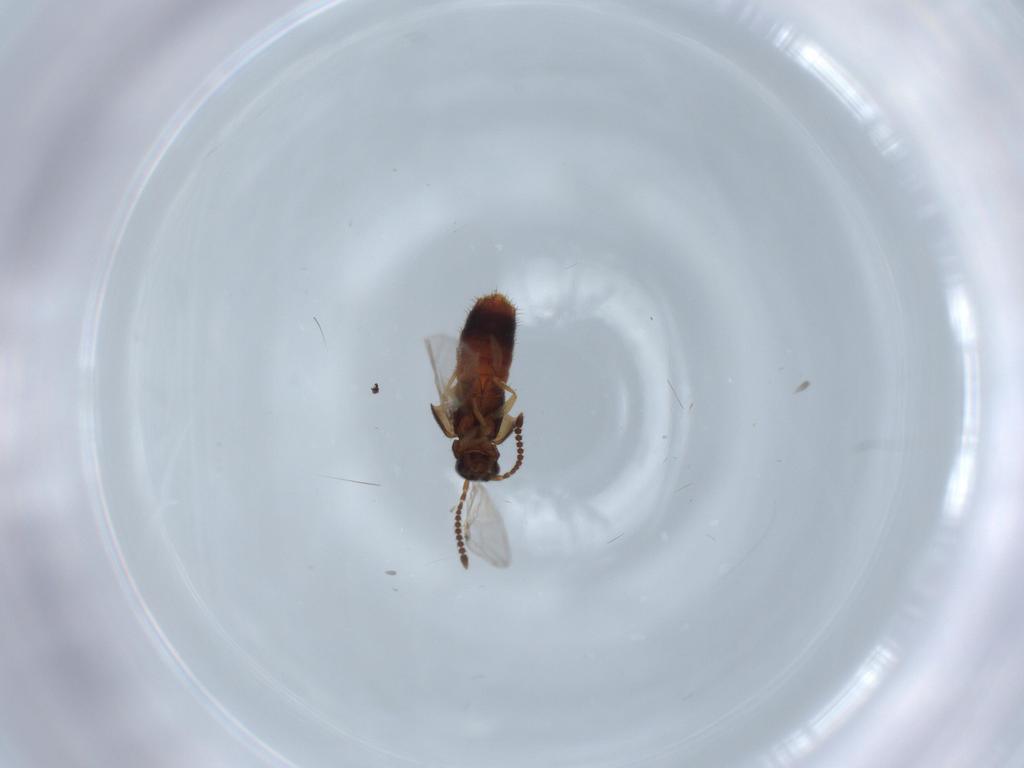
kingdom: Animalia
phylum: Arthropoda
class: Insecta
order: Coleoptera
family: Staphylinidae
